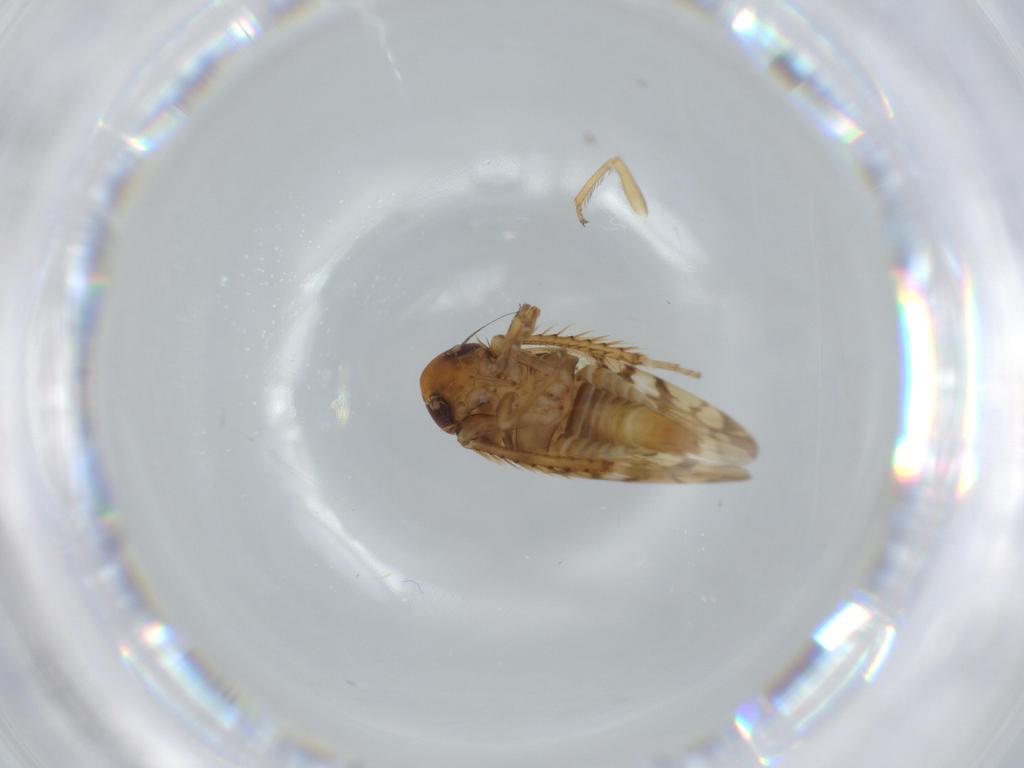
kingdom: Animalia
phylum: Arthropoda
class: Insecta
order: Hemiptera
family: Cicadellidae
